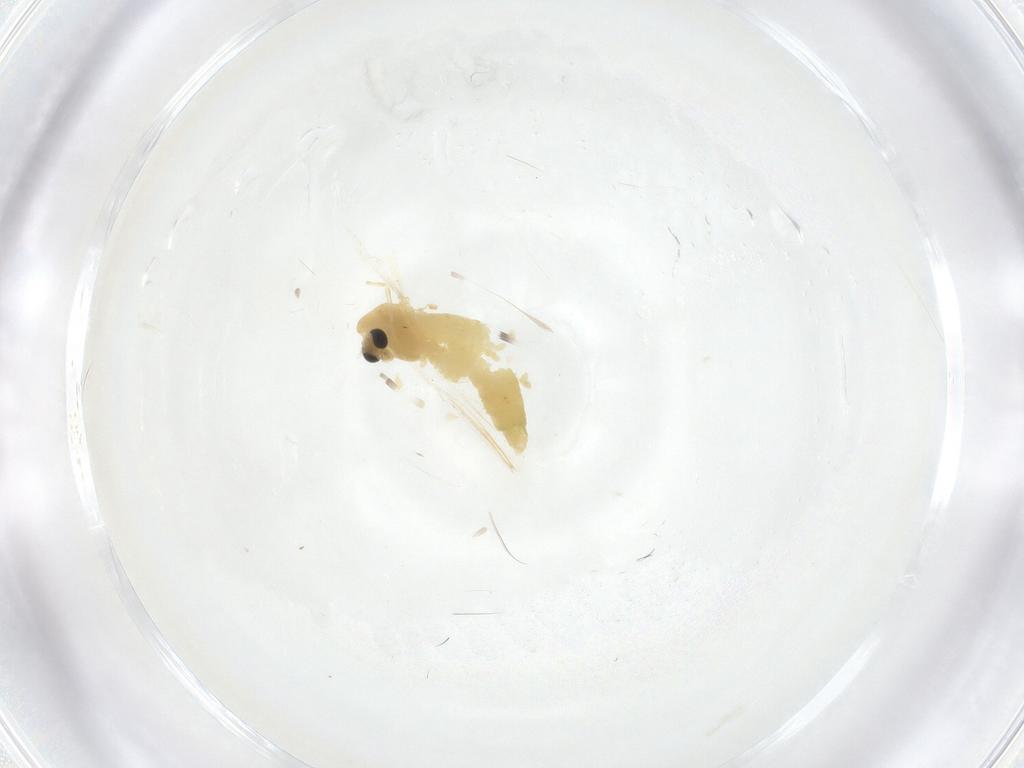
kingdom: Animalia
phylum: Arthropoda
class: Insecta
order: Diptera
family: Chironomidae
